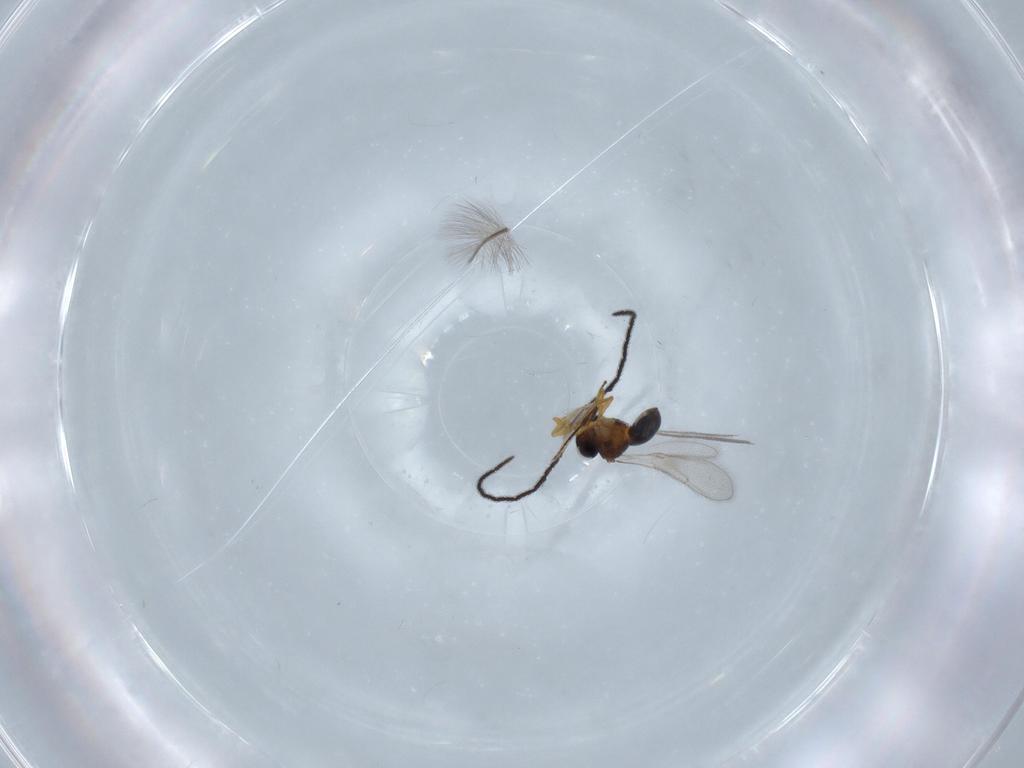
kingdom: Animalia
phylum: Arthropoda
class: Insecta
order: Hymenoptera
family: Scelionidae
